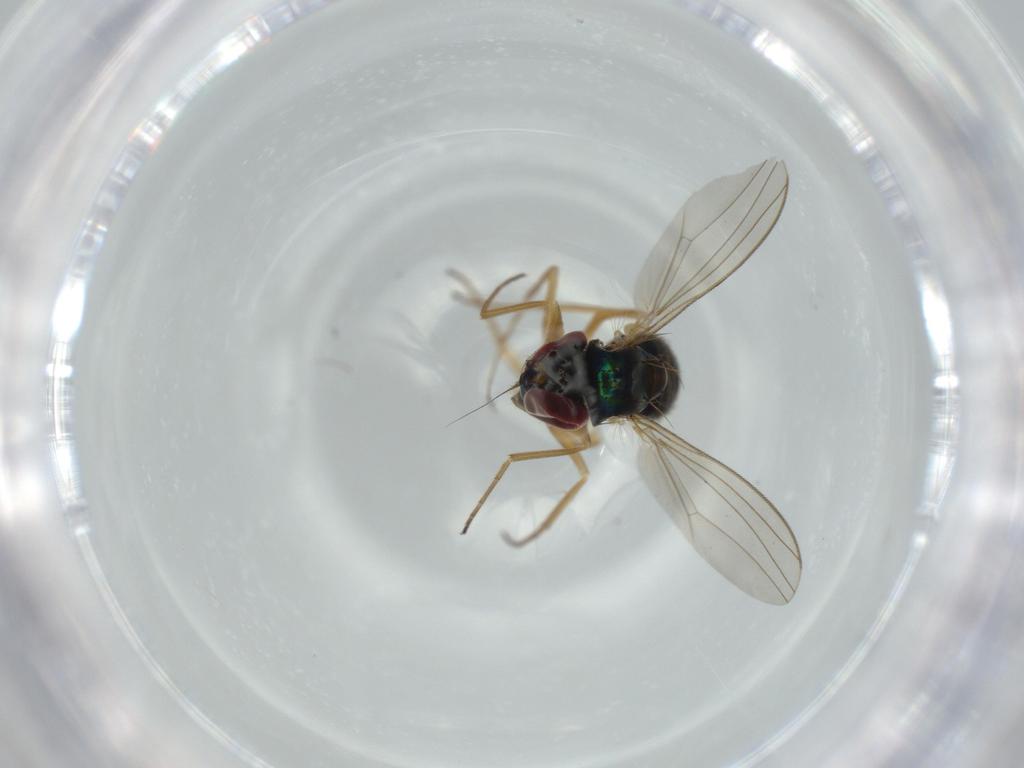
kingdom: Animalia
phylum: Arthropoda
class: Insecta
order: Diptera
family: Dolichopodidae
